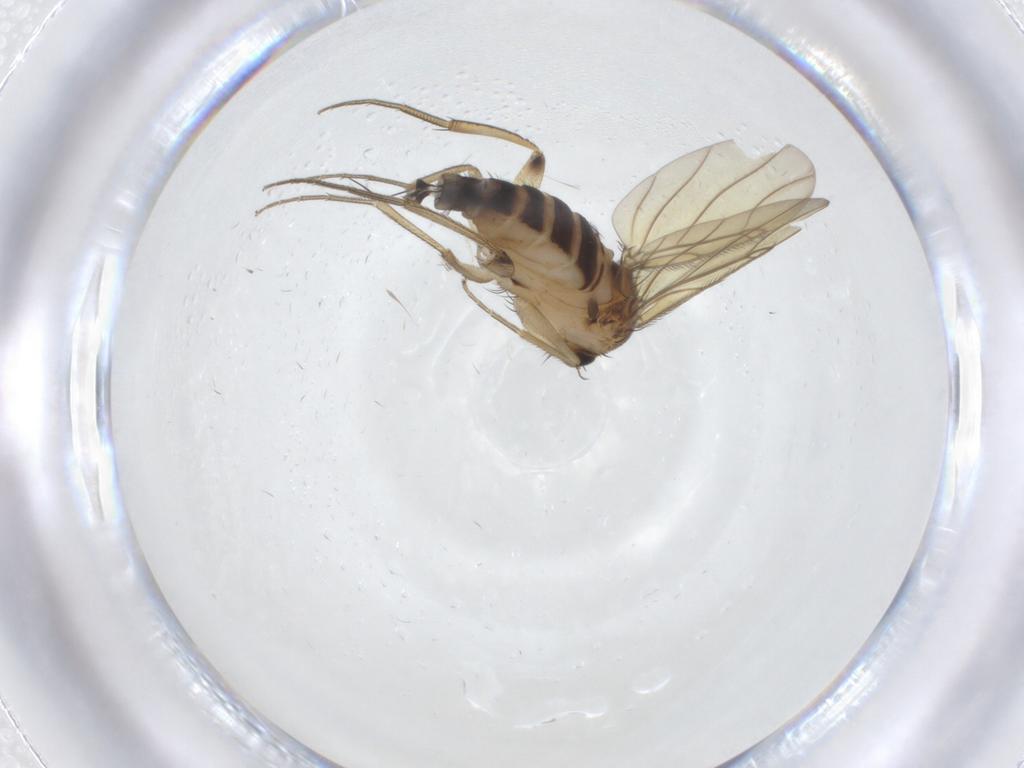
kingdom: Animalia
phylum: Arthropoda
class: Insecta
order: Diptera
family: Phoridae
